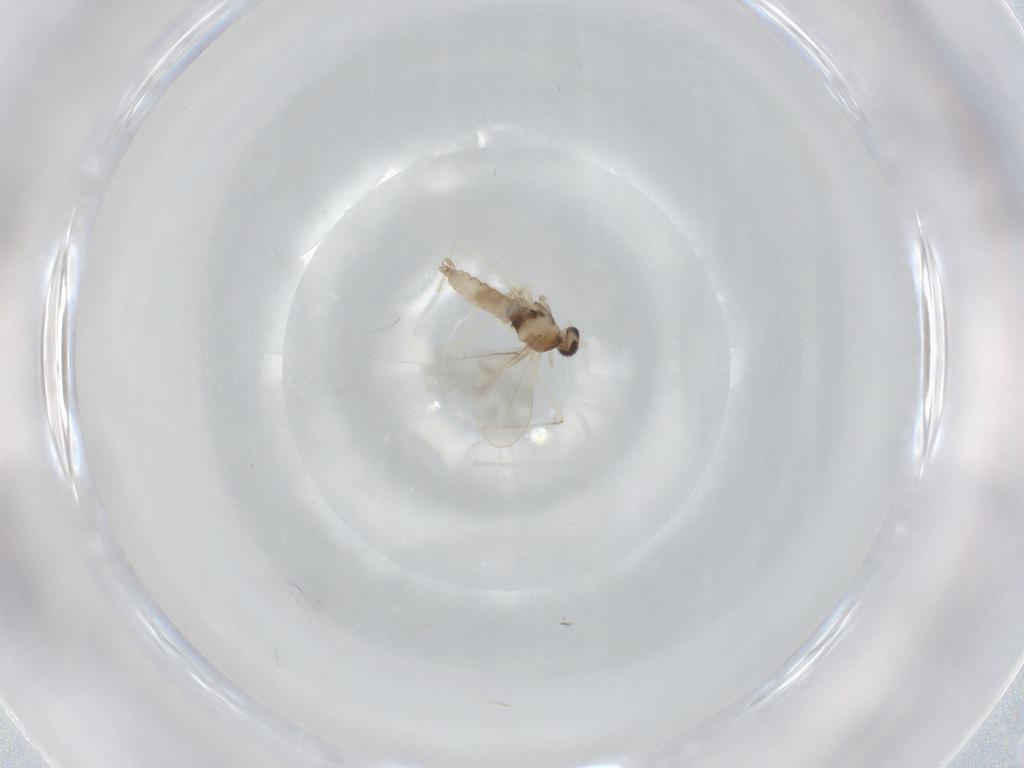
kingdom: Animalia
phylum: Arthropoda
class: Insecta
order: Diptera
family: Cecidomyiidae
